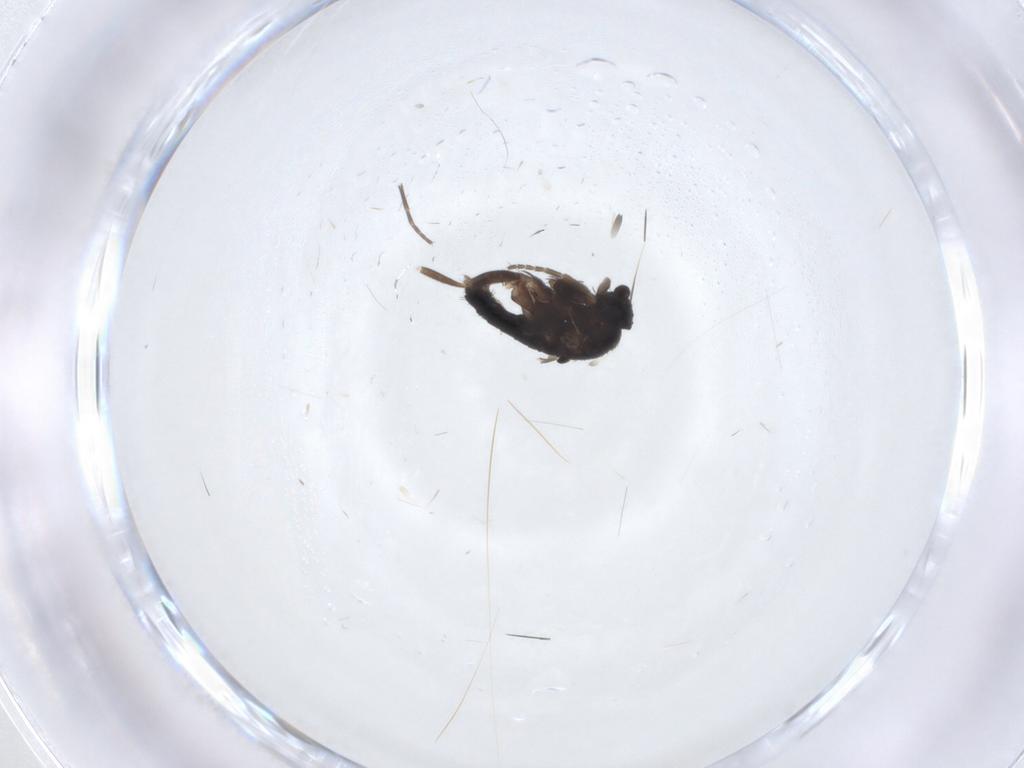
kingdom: Animalia
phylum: Arthropoda
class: Insecta
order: Diptera
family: Phoridae
